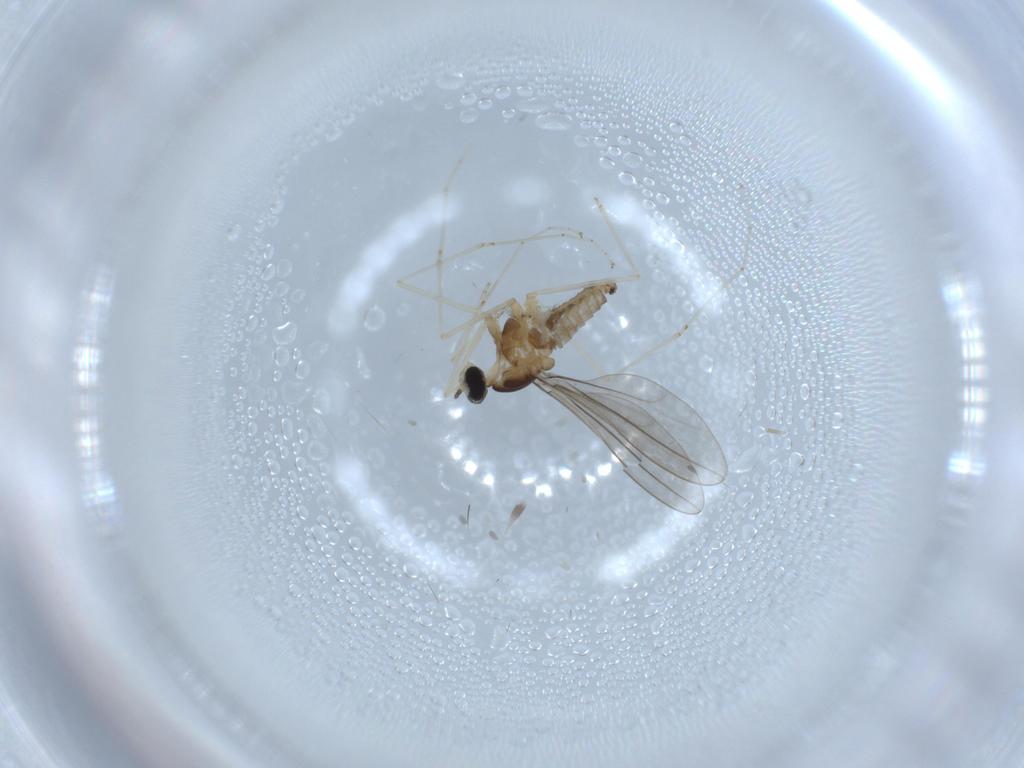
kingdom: Animalia
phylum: Arthropoda
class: Insecta
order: Diptera
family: Cecidomyiidae
